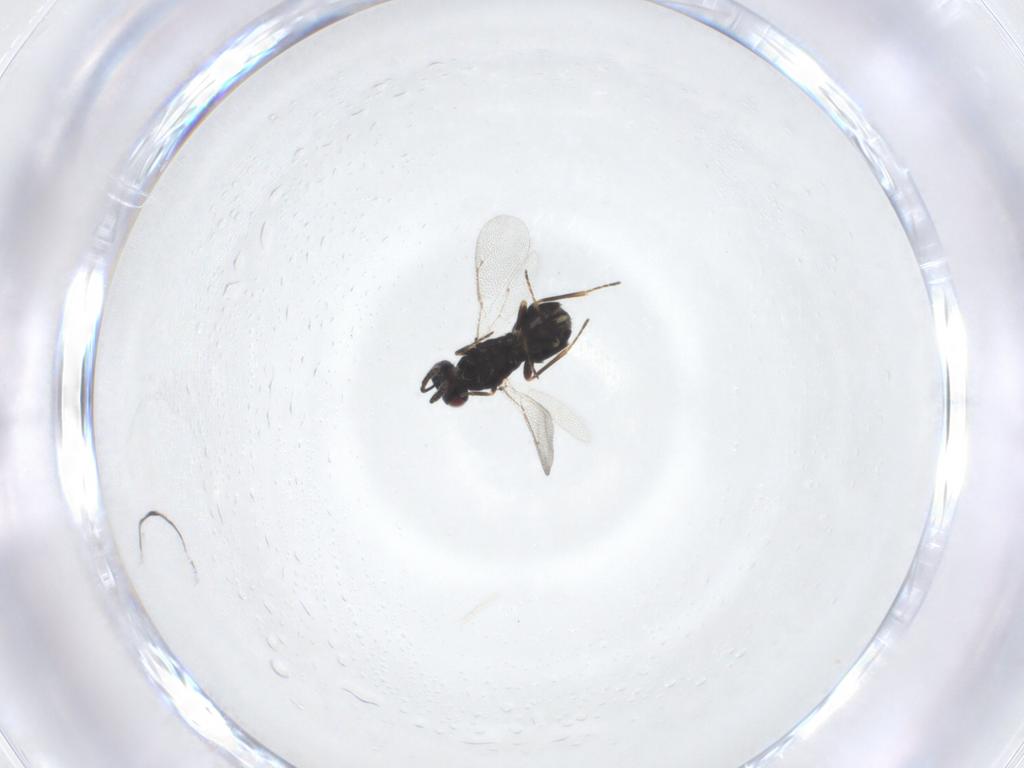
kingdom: Animalia
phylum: Arthropoda
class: Insecta
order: Hymenoptera
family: Eulophidae
